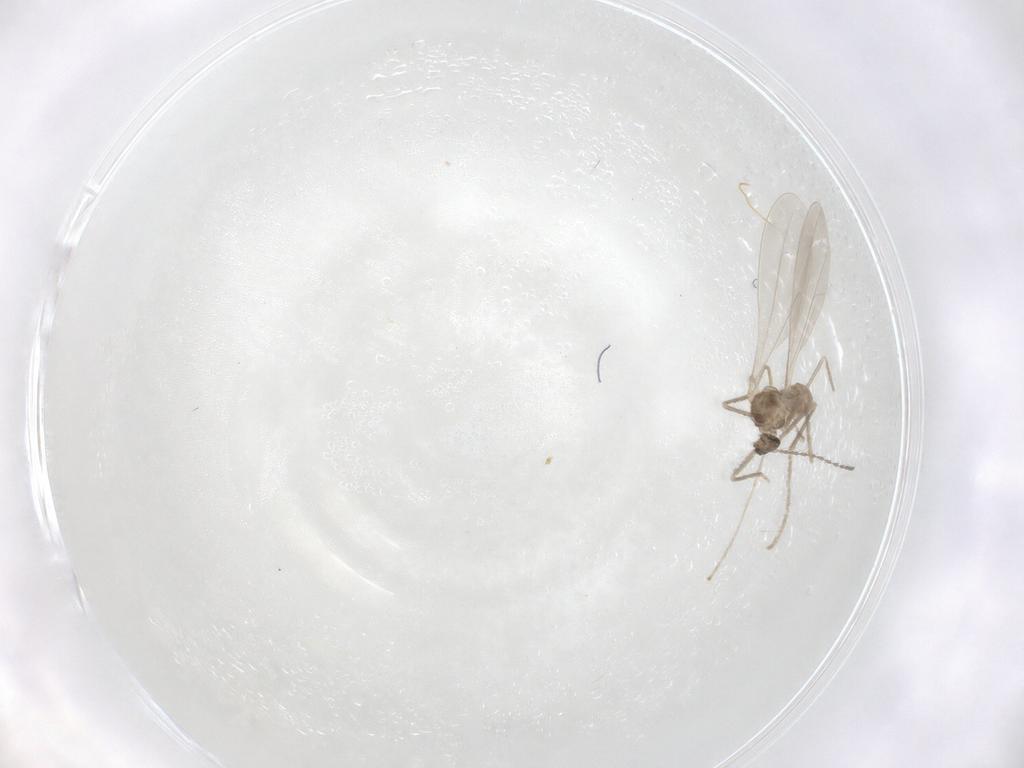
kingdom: Animalia
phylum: Arthropoda
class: Insecta
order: Diptera
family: Cecidomyiidae
